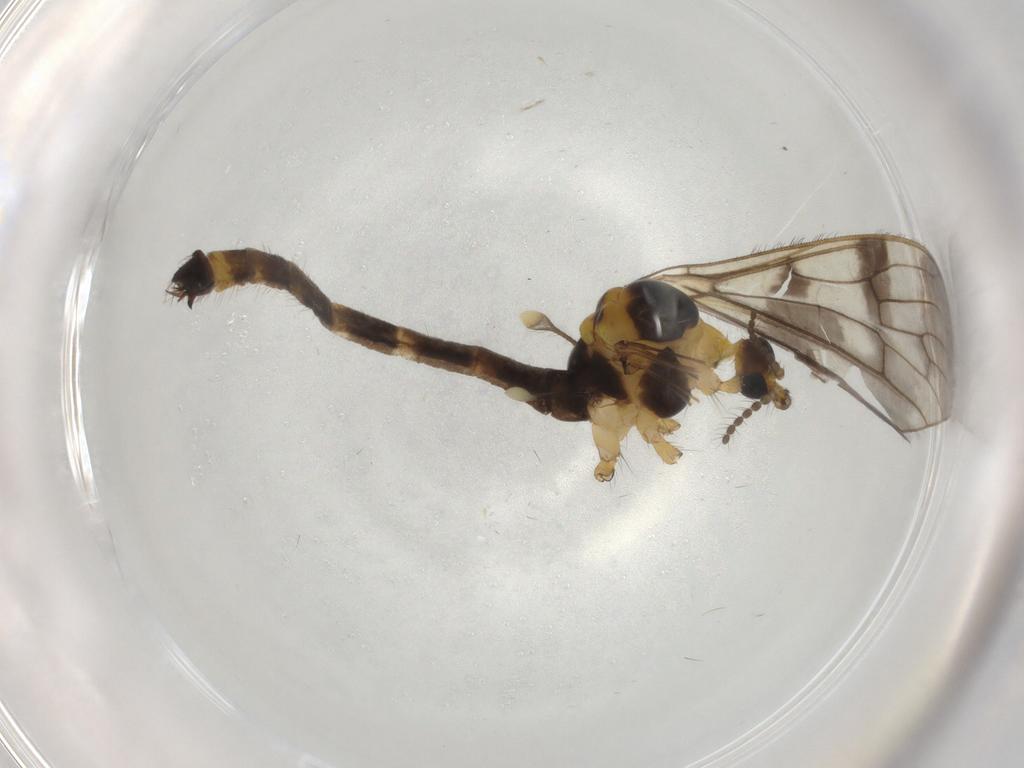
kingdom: Animalia
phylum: Arthropoda
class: Insecta
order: Diptera
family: Limoniidae
